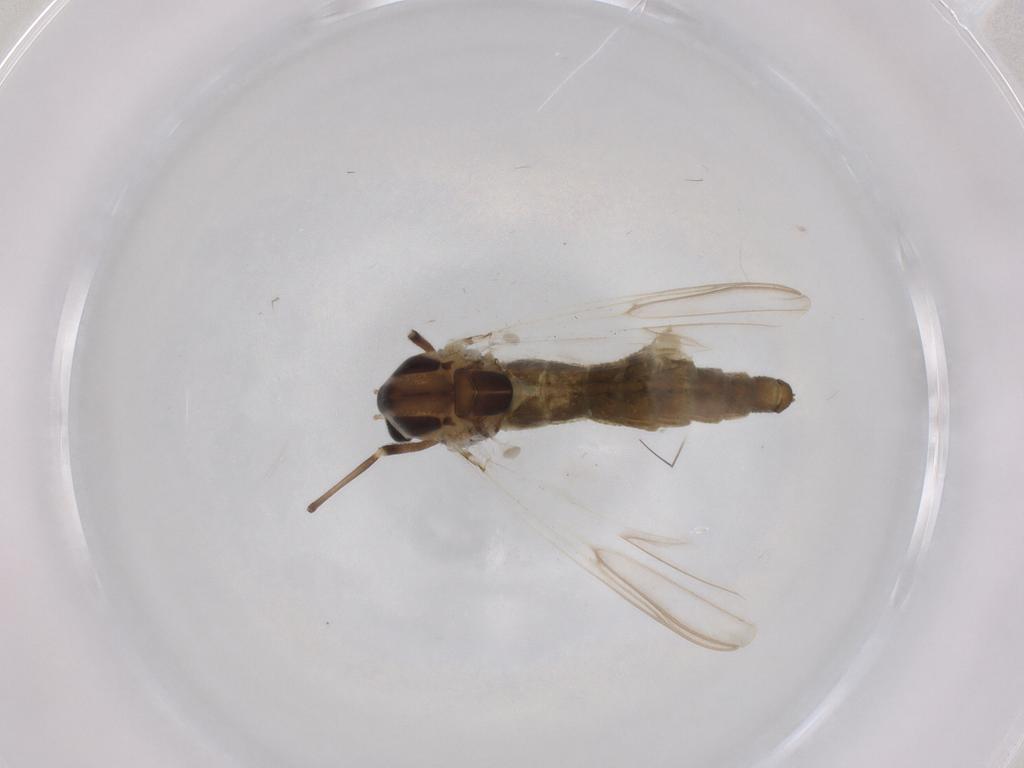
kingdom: Animalia
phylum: Arthropoda
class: Insecta
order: Diptera
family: Chironomidae
